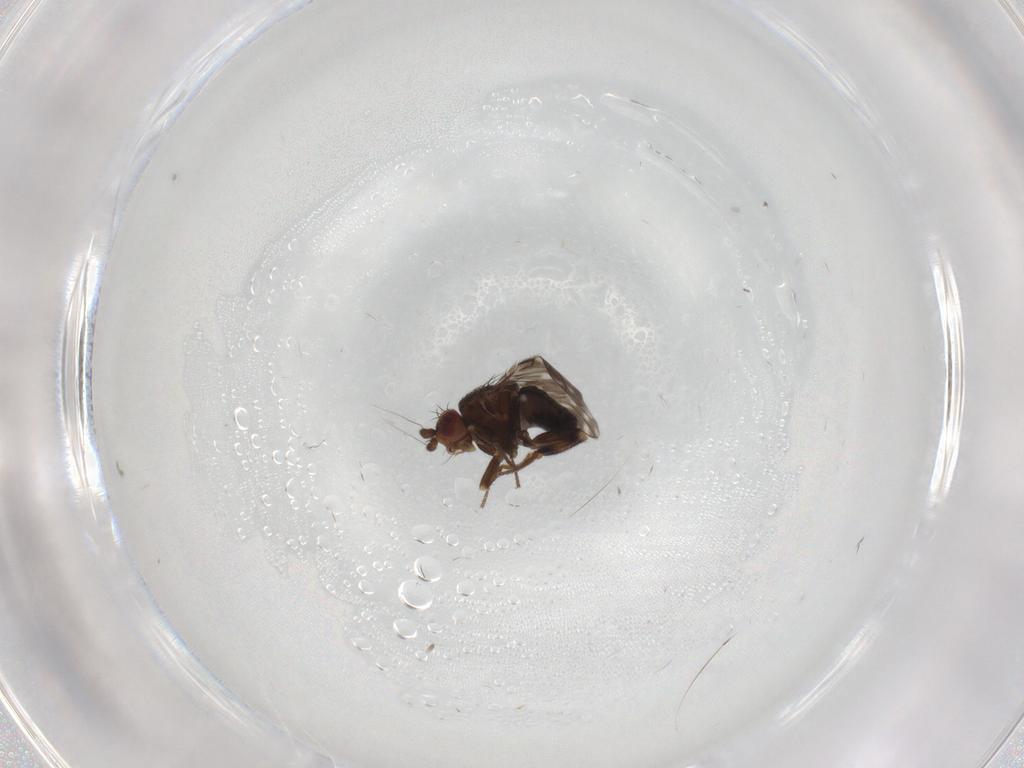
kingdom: Animalia
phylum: Arthropoda
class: Insecta
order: Diptera
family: Sphaeroceridae
